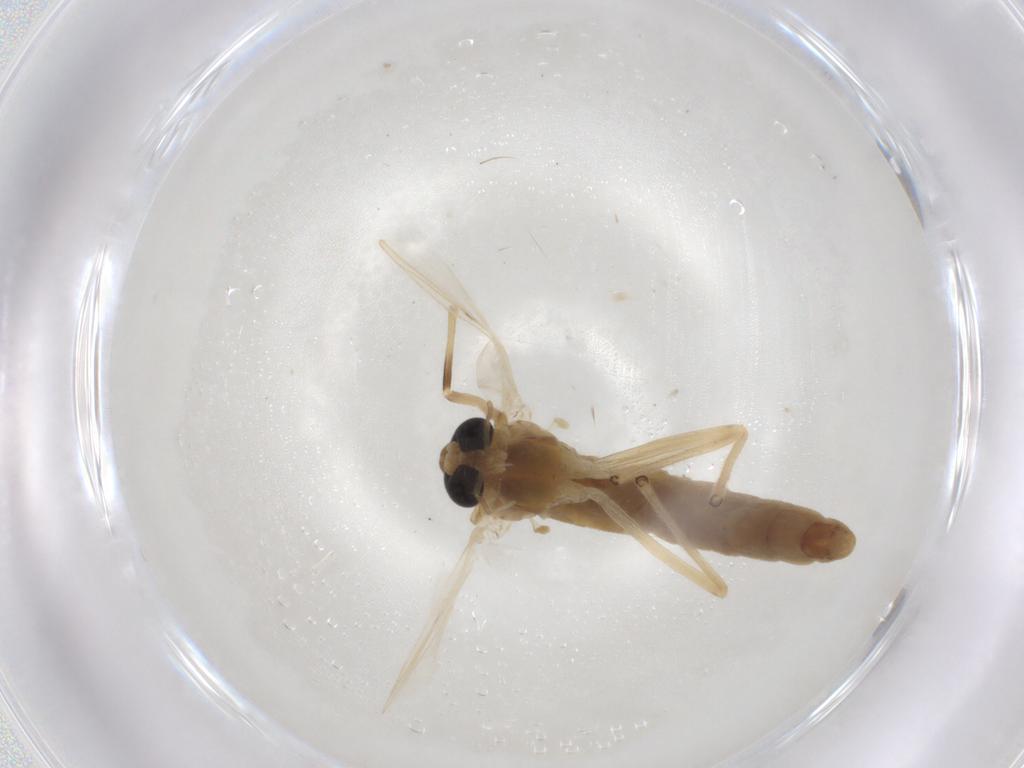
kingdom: Animalia
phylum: Arthropoda
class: Insecta
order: Diptera
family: Chironomidae
